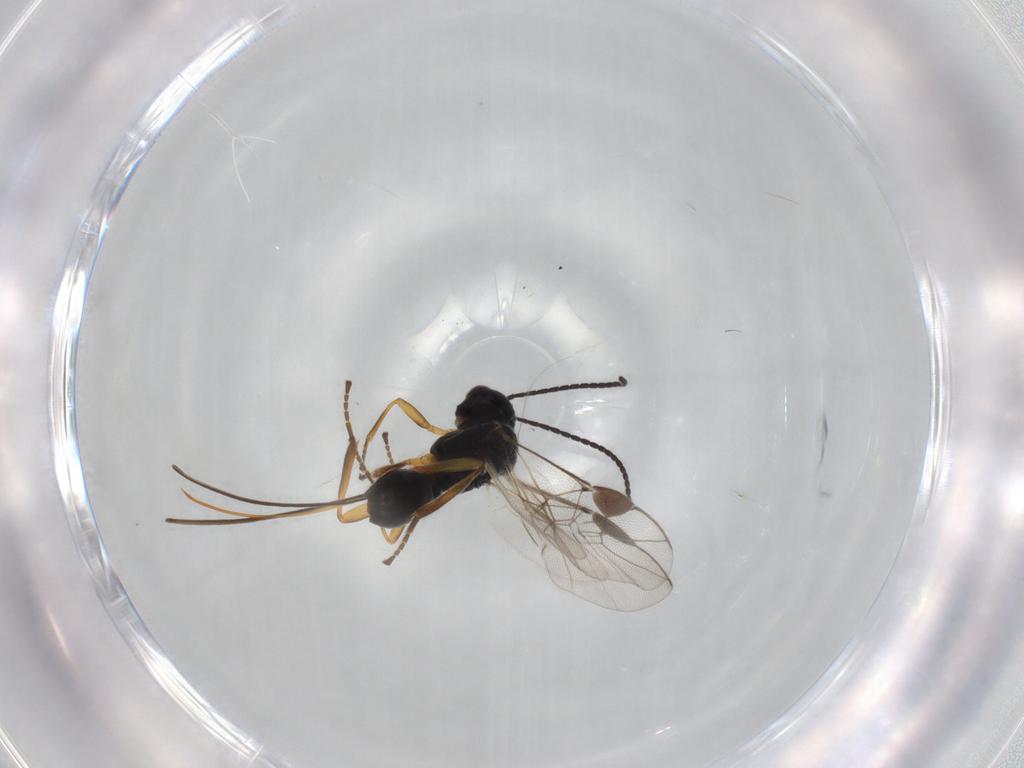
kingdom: Animalia
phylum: Arthropoda
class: Insecta
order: Hymenoptera
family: Braconidae
